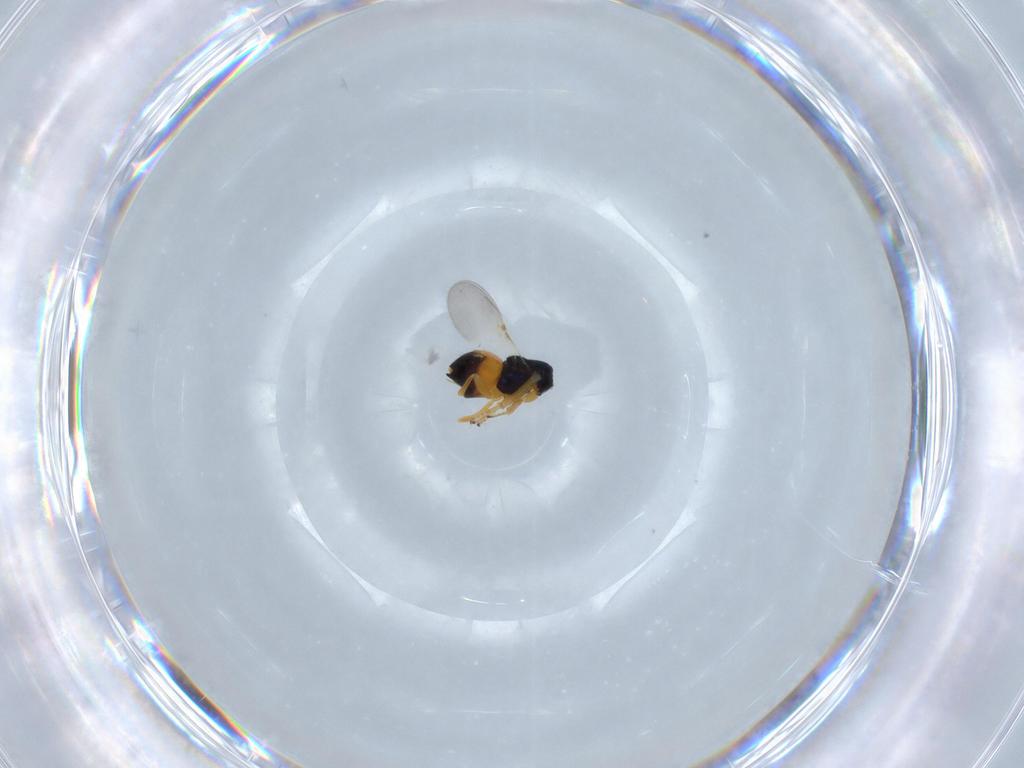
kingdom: Animalia
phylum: Arthropoda
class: Insecta
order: Hymenoptera
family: Encyrtidae
